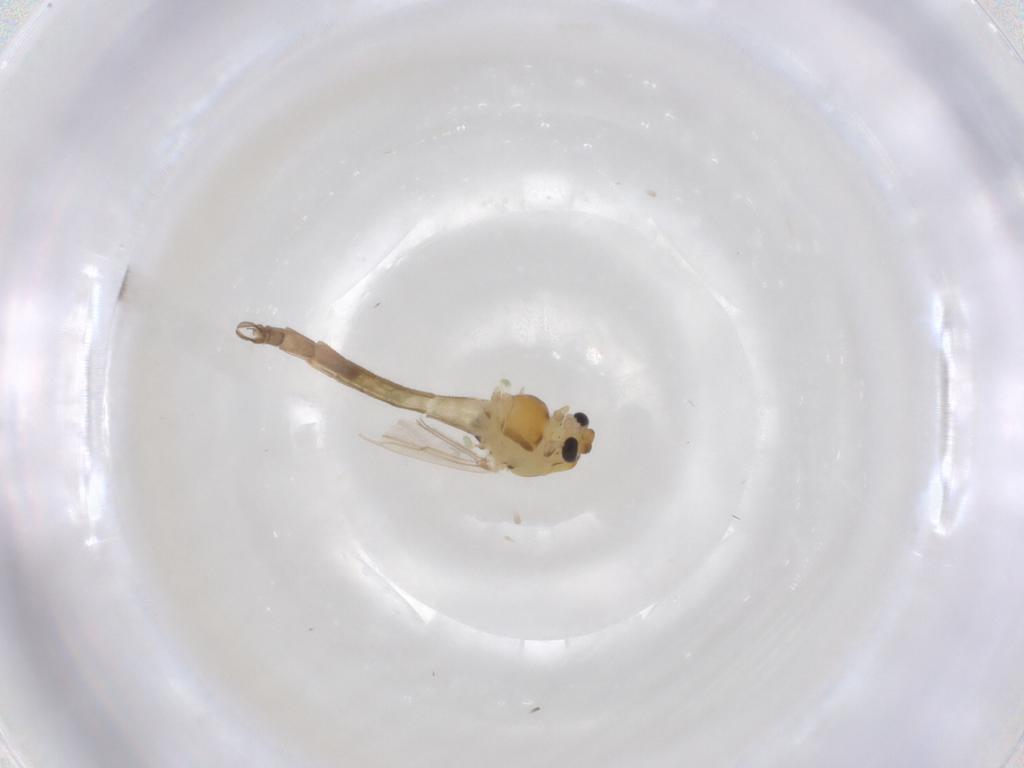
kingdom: Animalia
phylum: Arthropoda
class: Insecta
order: Diptera
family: Chironomidae
